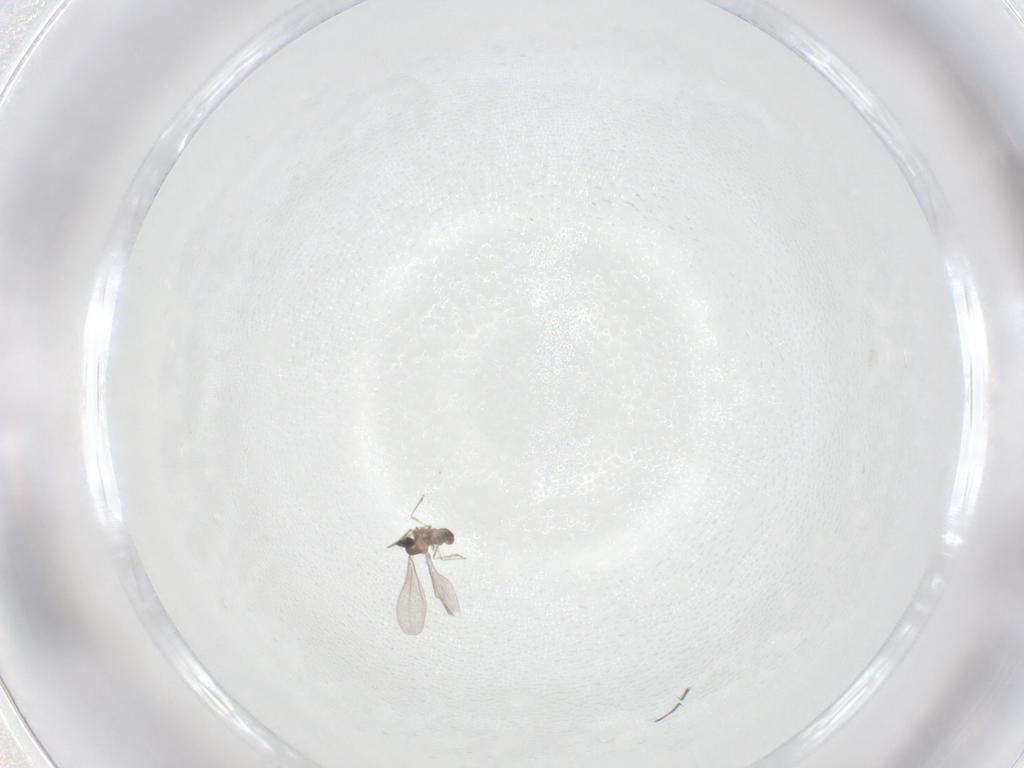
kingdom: Animalia
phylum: Arthropoda
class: Insecta
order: Diptera
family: Cecidomyiidae
